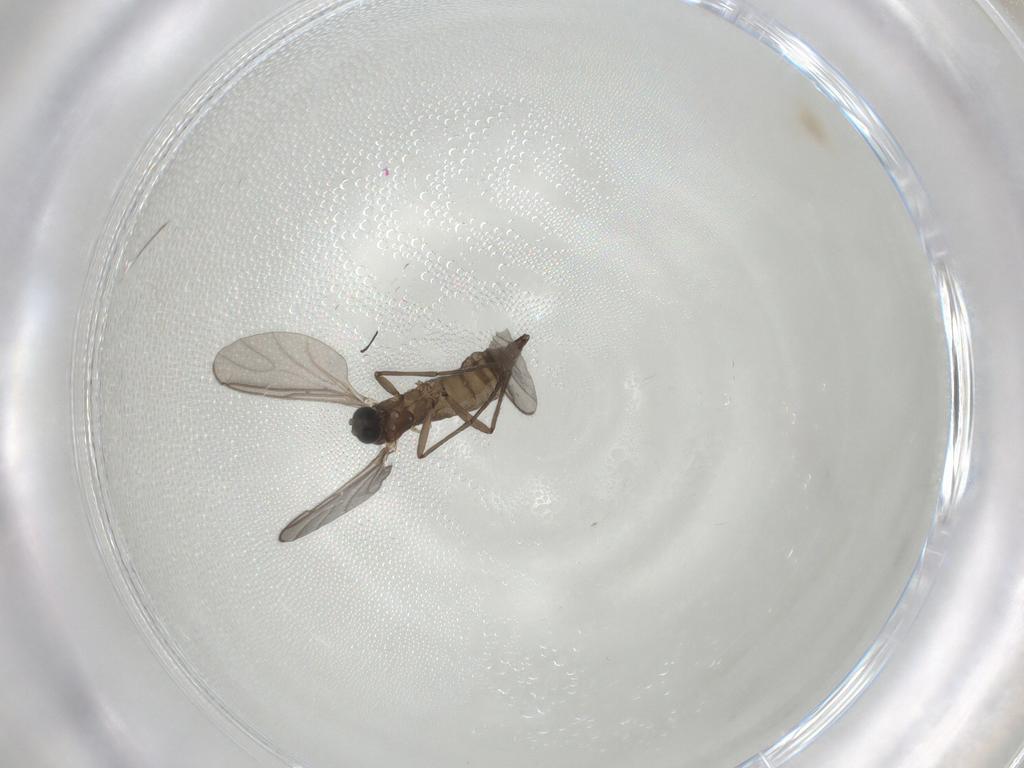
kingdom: Animalia
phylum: Arthropoda
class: Insecta
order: Diptera
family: Sciaridae
